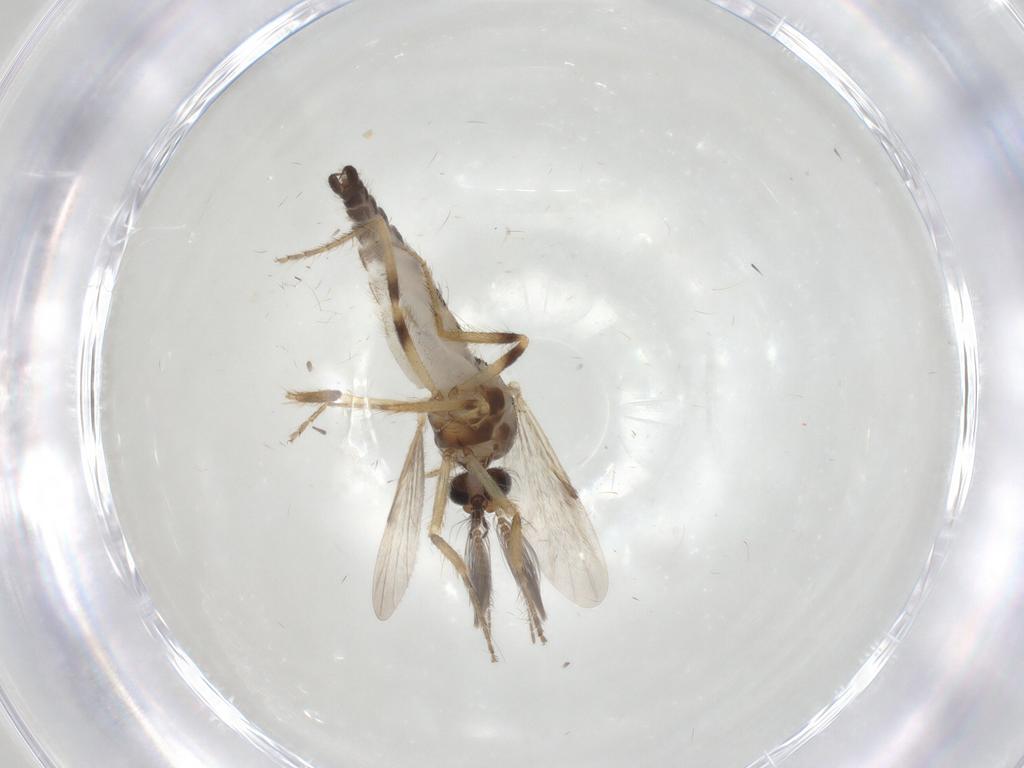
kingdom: Animalia
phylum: Arthropoda
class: Insecta
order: Diptera
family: Ceratopogonidae
